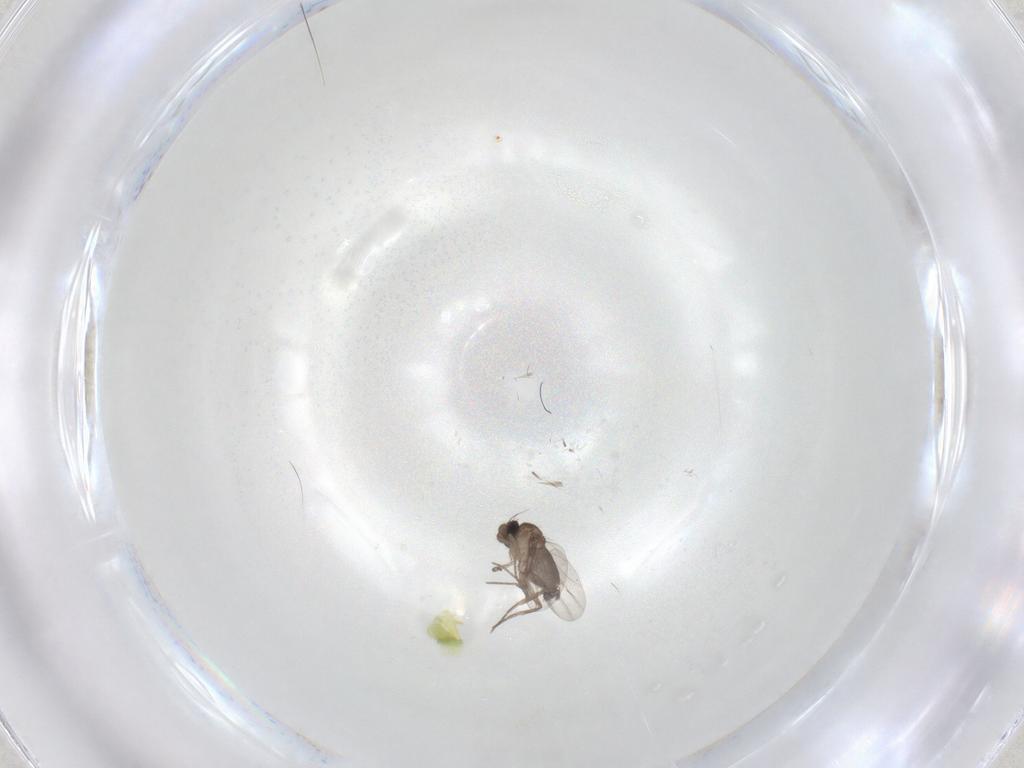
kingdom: Animalia
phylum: Arthropoda
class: Insecta
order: Diptera
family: Phoridae
